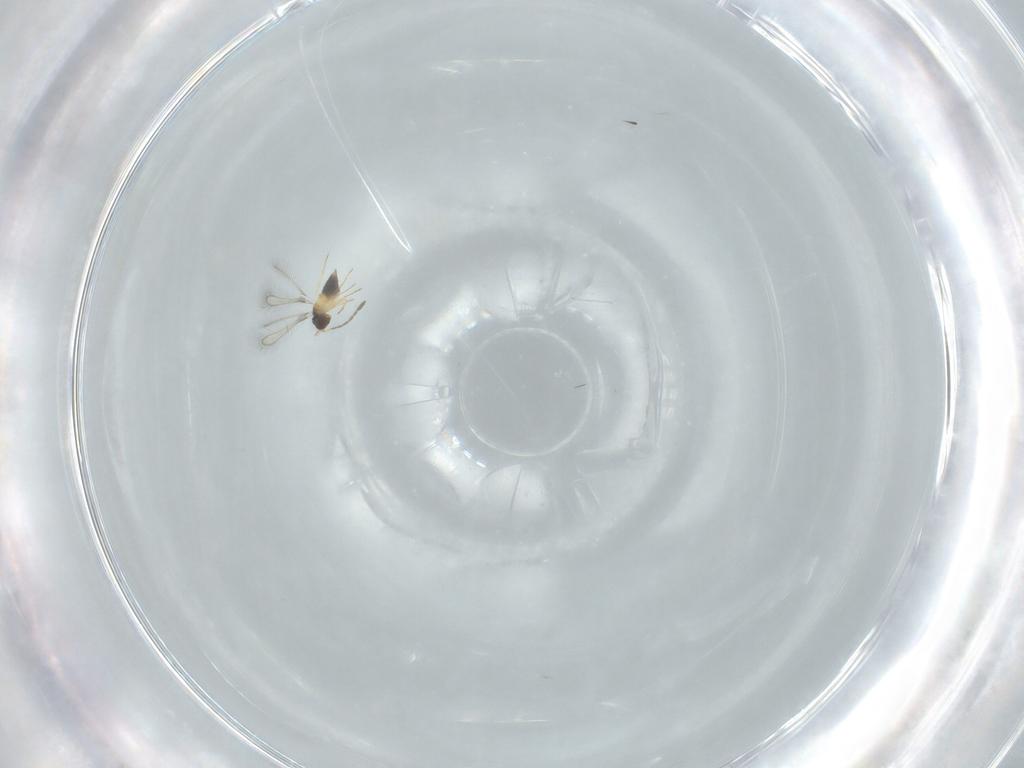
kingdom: Animalia
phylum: Arthropoda
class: Insecta
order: Hymenoptera
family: Mymaridae
